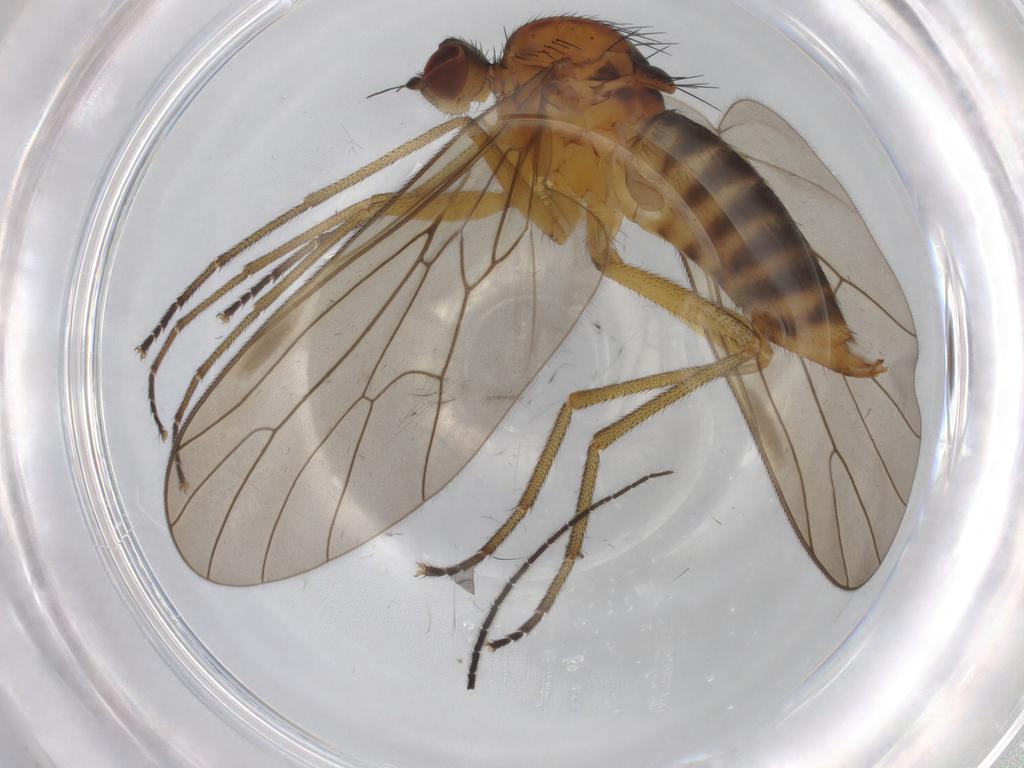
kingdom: Animalia
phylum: Arthropoda
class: Insecta
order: Diptera
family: Brachystomatidae
